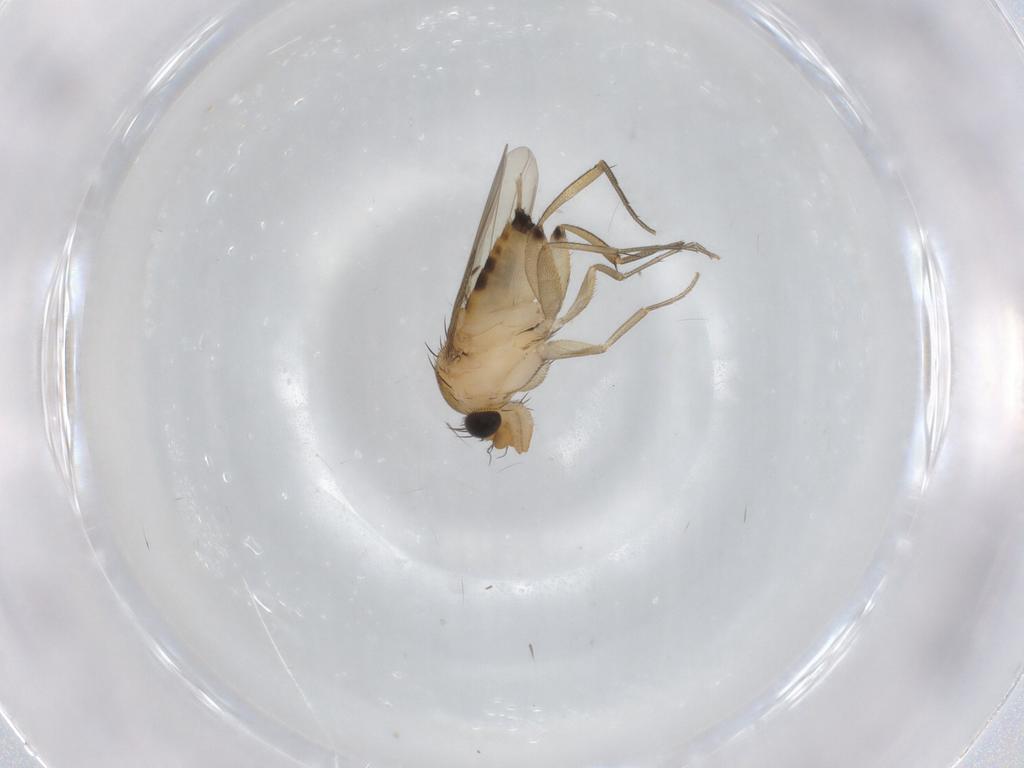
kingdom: Animalia
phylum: Arthropoda
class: Insecta
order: Diptera
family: Phoridae
